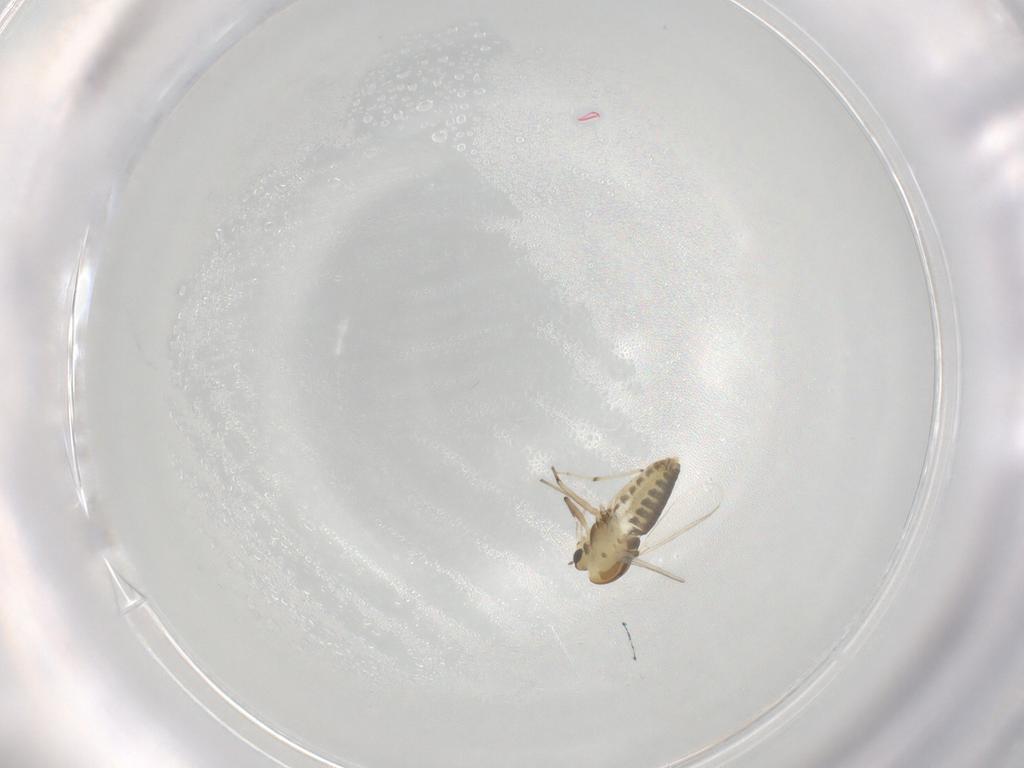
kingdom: Animalia
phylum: Arthropoda
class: Insecta
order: Diptera
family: Chironomidae
